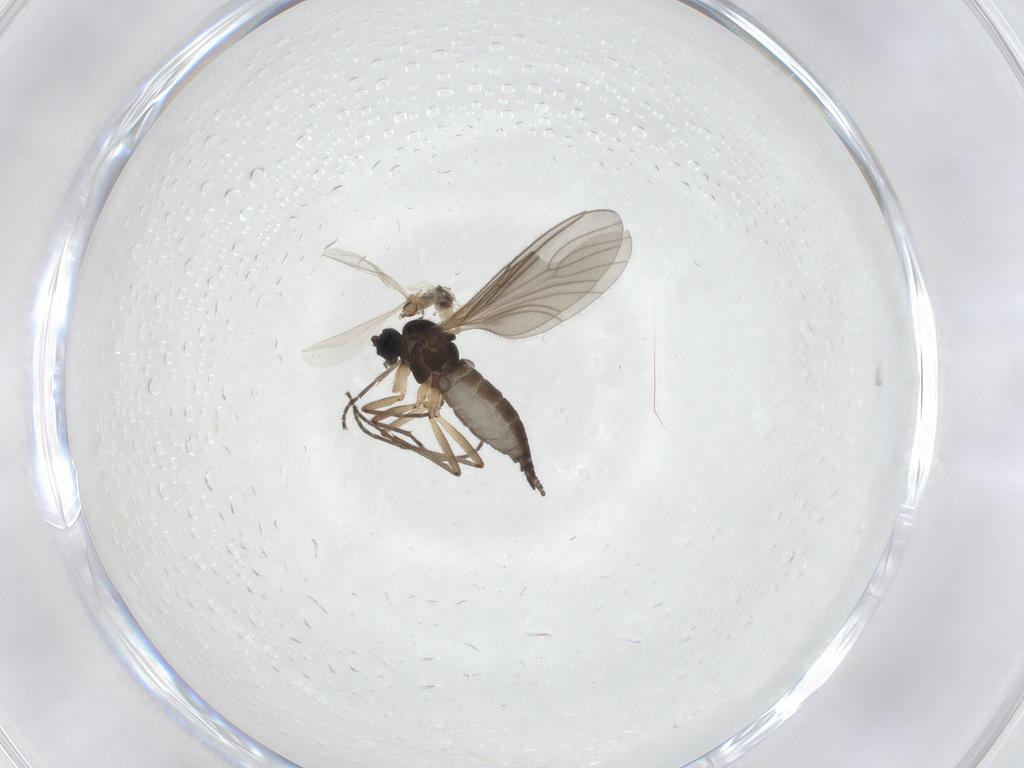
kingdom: Animalia
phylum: Arthropoda
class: Insecta
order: Diptera
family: Sciaridae
